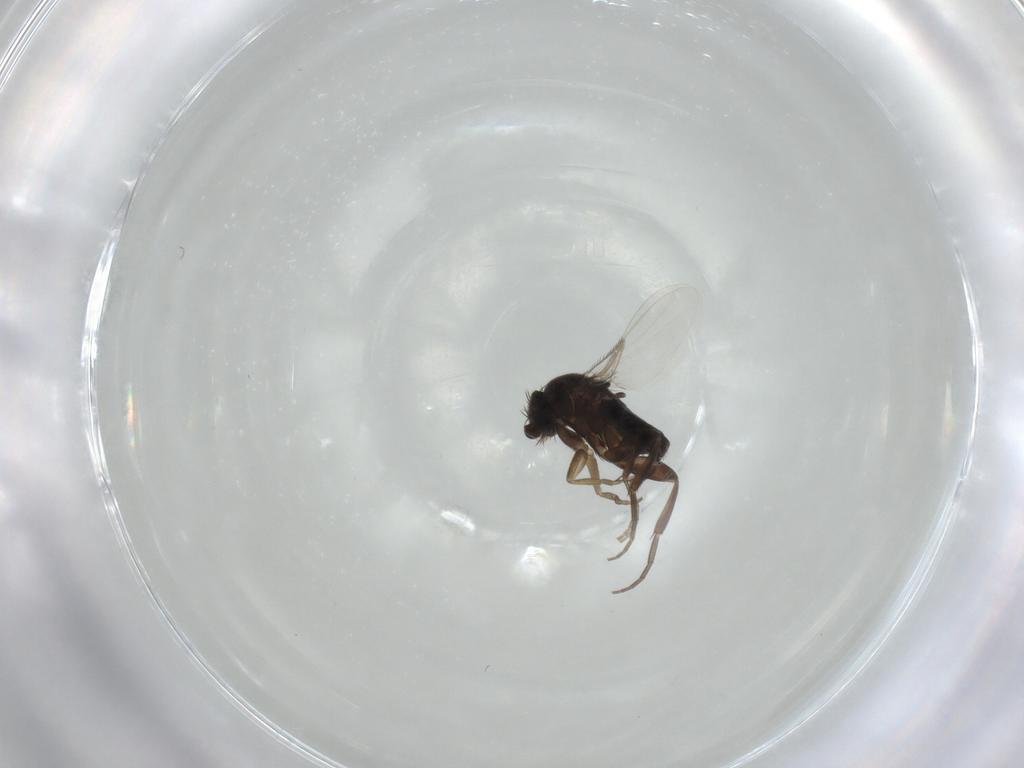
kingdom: Animalia
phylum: Arthropoda
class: Insecta
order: Diptera
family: Phoridae
